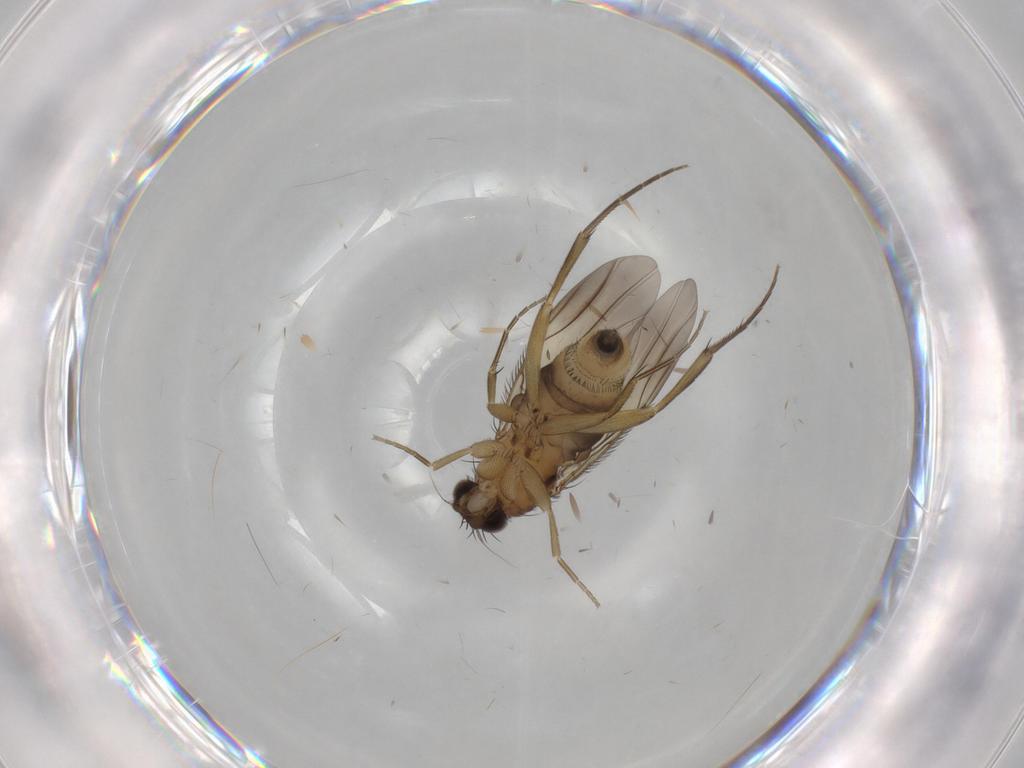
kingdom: Animalia
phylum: Arthropoda
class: Insecta
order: Diptera
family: Phoridae
